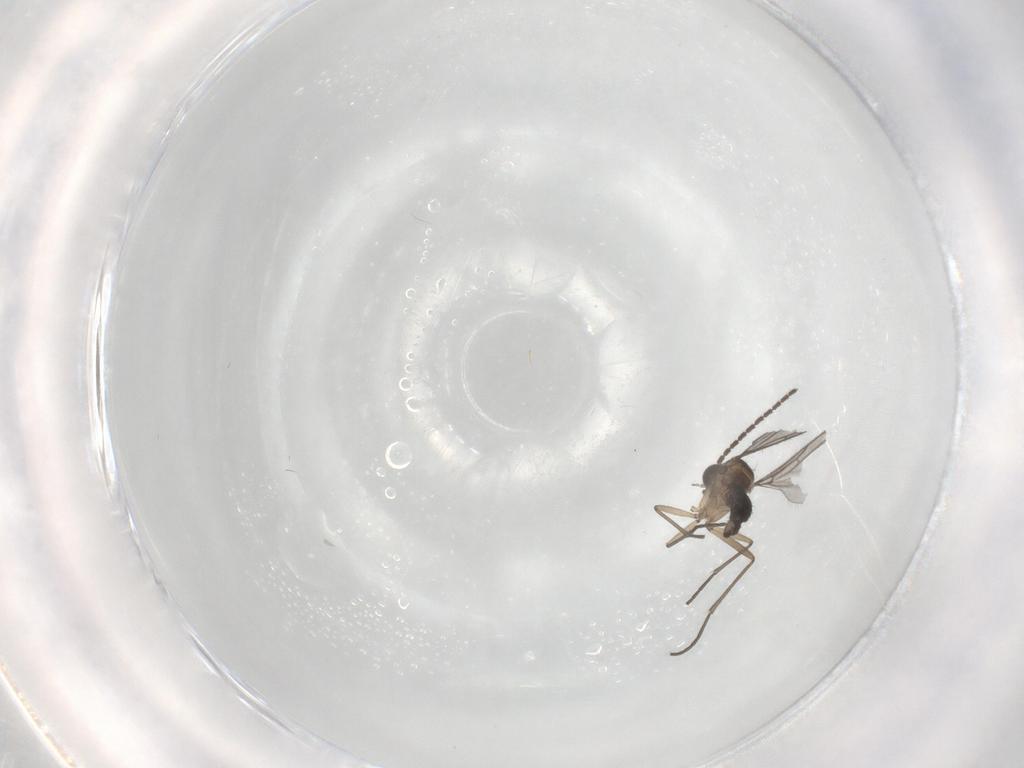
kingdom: Animalia
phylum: Arthropoda
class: Insecta
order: Diptera
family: Sciaridae
